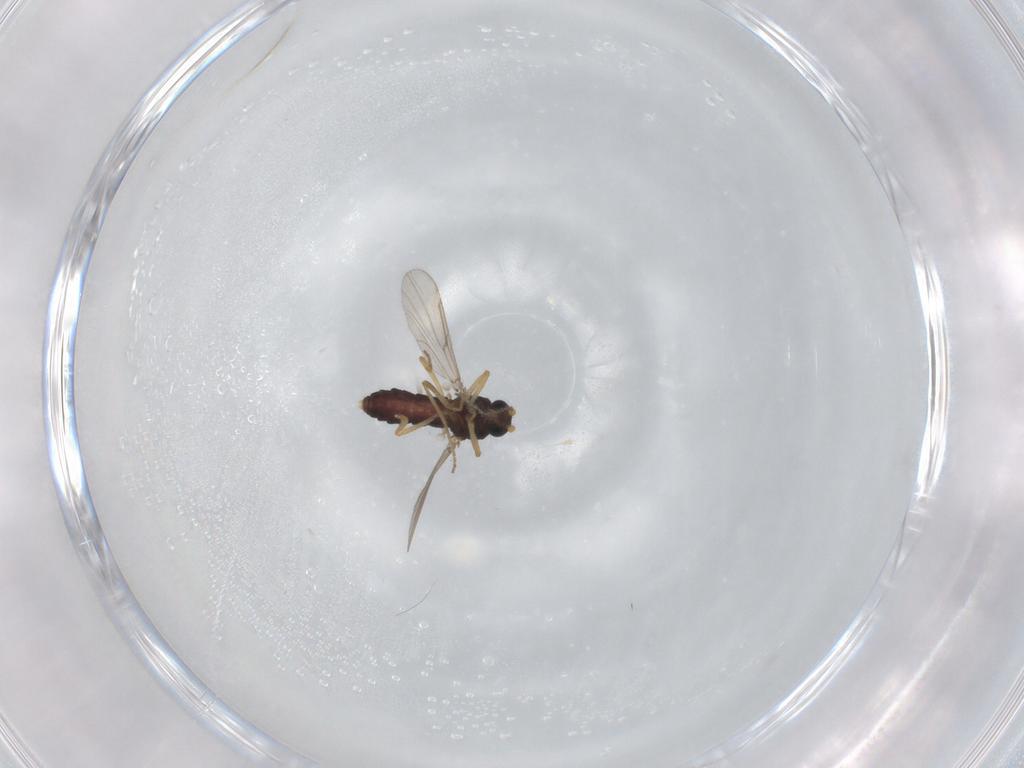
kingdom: Animalia
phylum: Arthropoda
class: Insecta
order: Diptera
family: Ceratopogonidae
